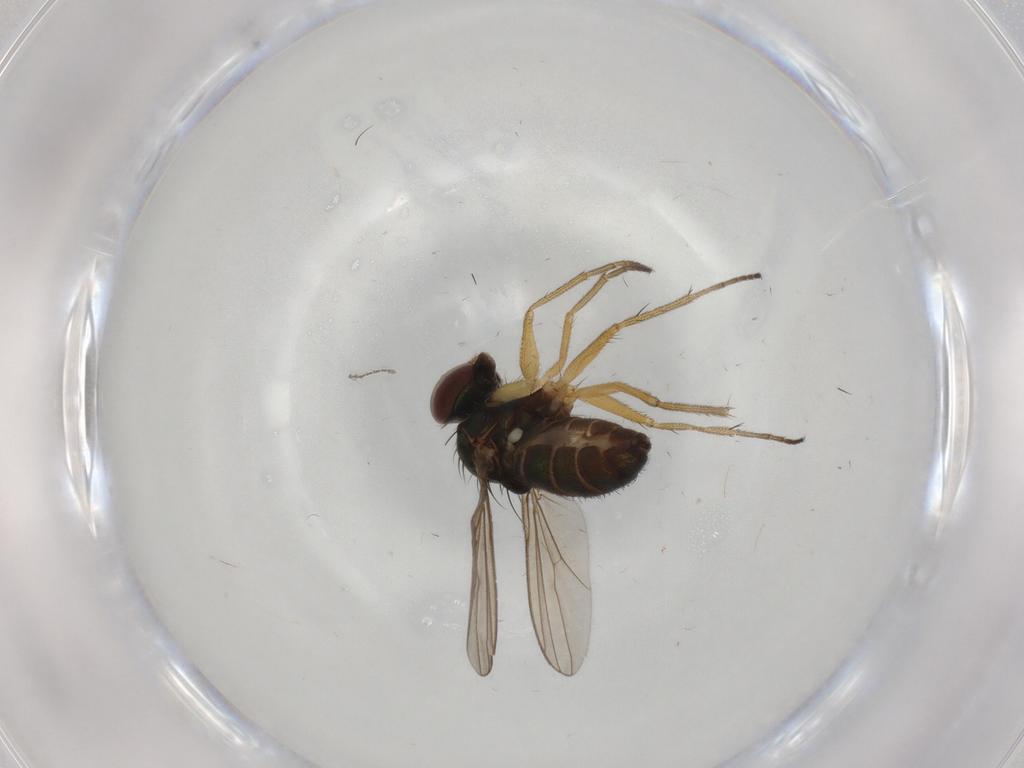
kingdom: Animalia
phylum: Arthropoda
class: Insecta
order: Diptera
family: Dolichopodidae
